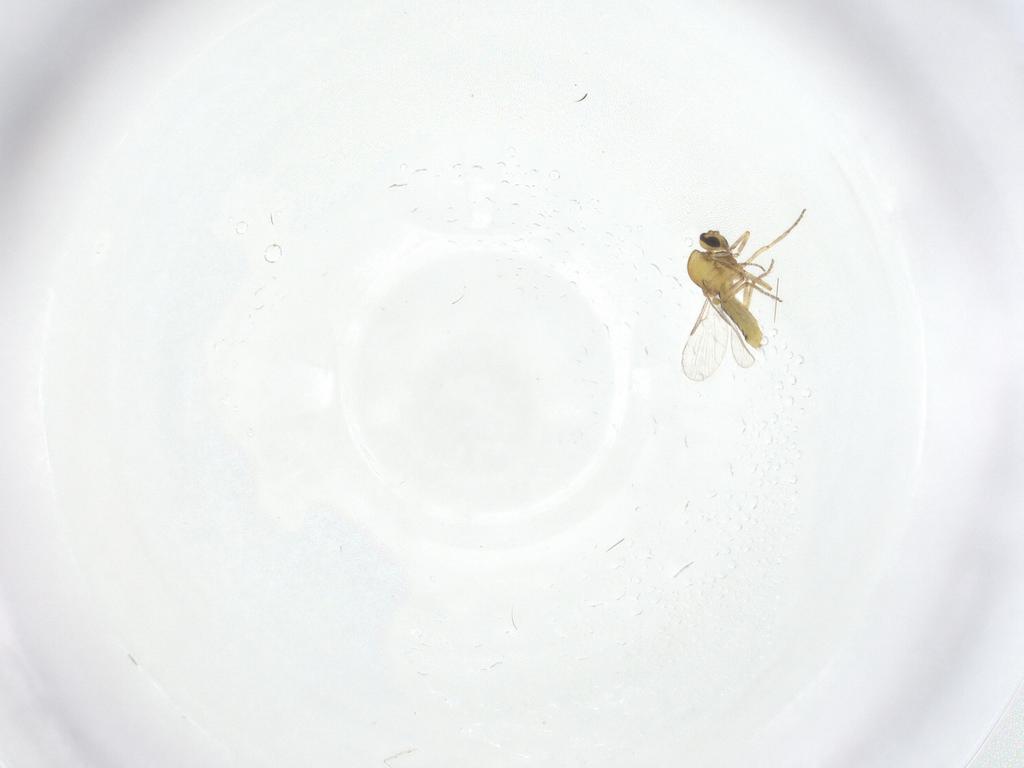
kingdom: Animalia
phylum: Arthropoda
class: Insecta
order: Diptera
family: Cecidomyiidae
